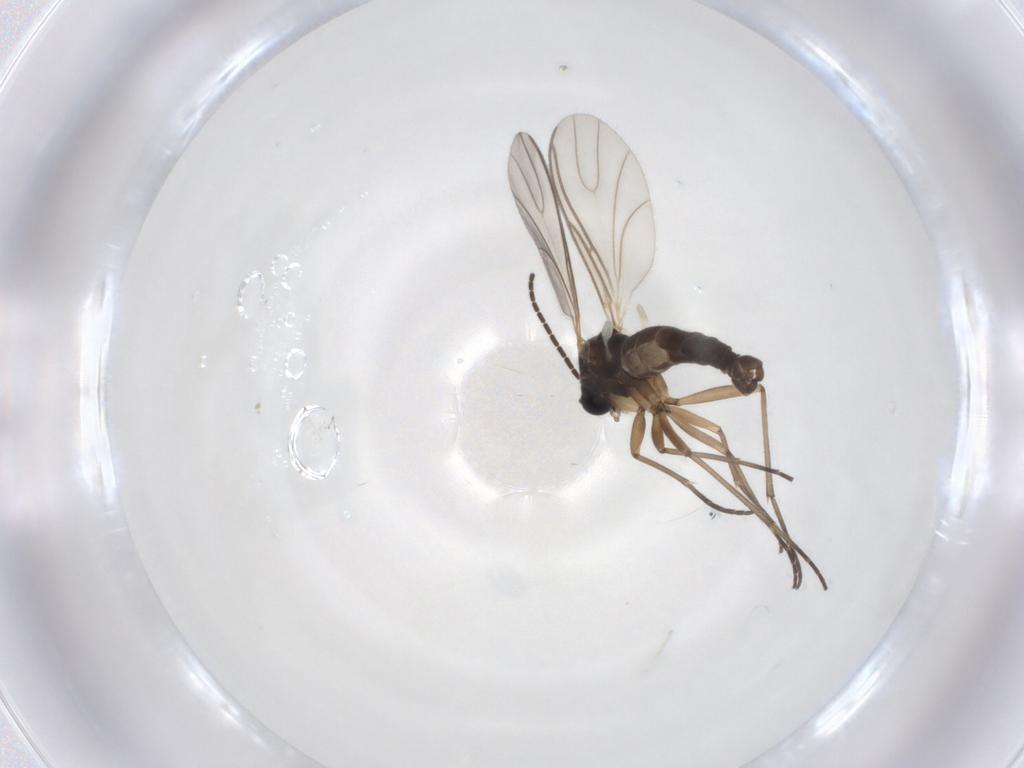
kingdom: Animalia
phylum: Arthropoda
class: Insecta
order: Diptera
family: Sciaridae
